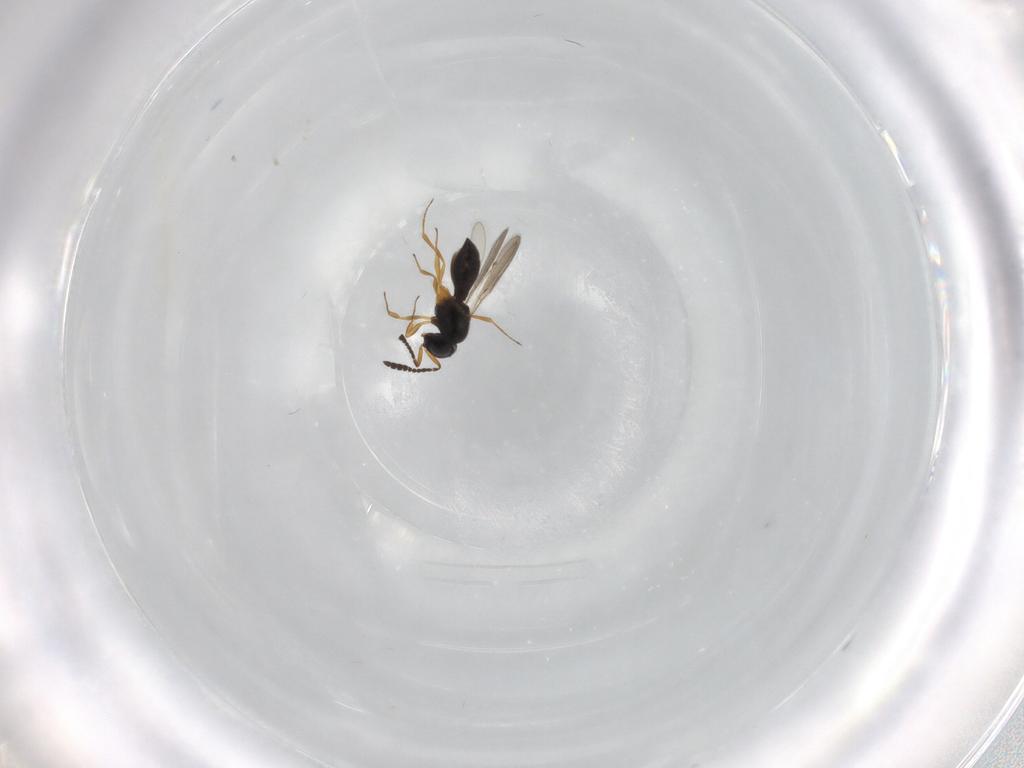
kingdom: Animalia
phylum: Arthropoda
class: Insecta
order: Hymenoptera
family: Scelionidae
